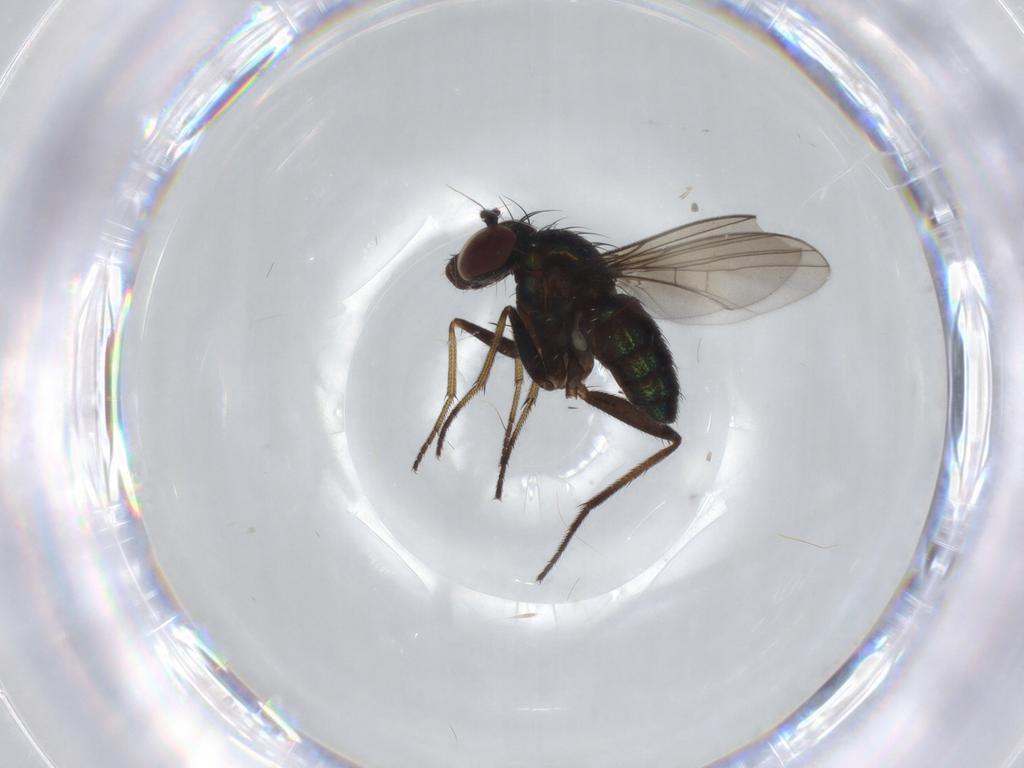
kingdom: Animalia
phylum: Arthropoda
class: Insecta
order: Diptera
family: Dolichopodidae
